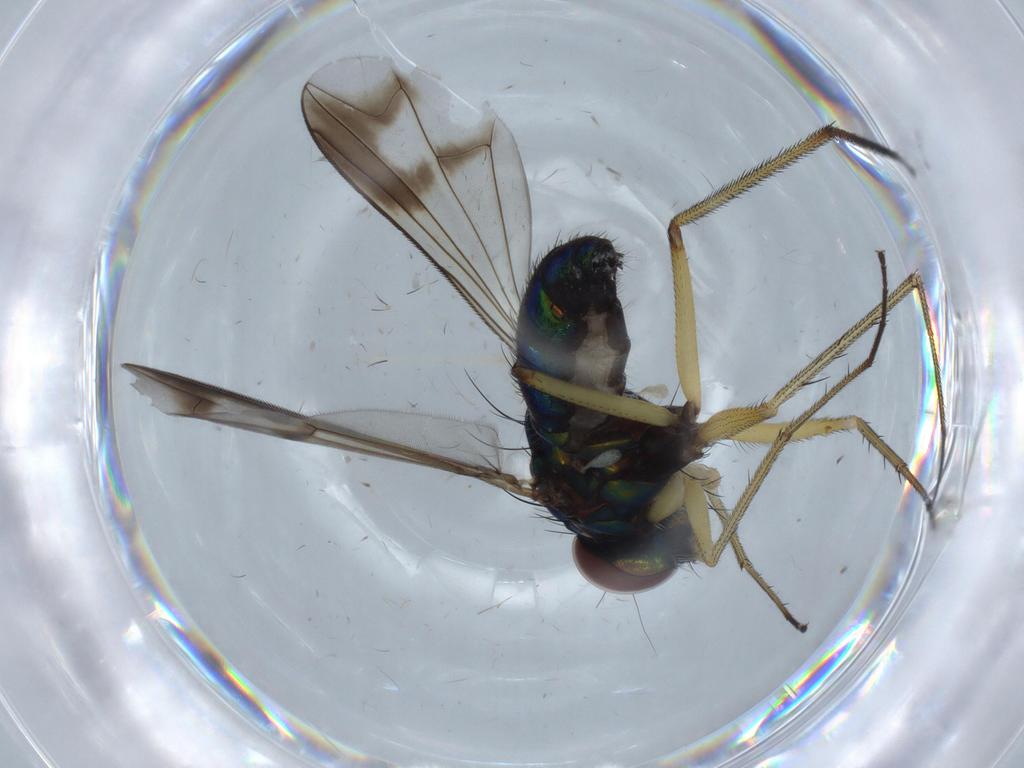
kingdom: Animalia
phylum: Arthropoda
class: Insecta
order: Diptera
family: Dolichopodidae
